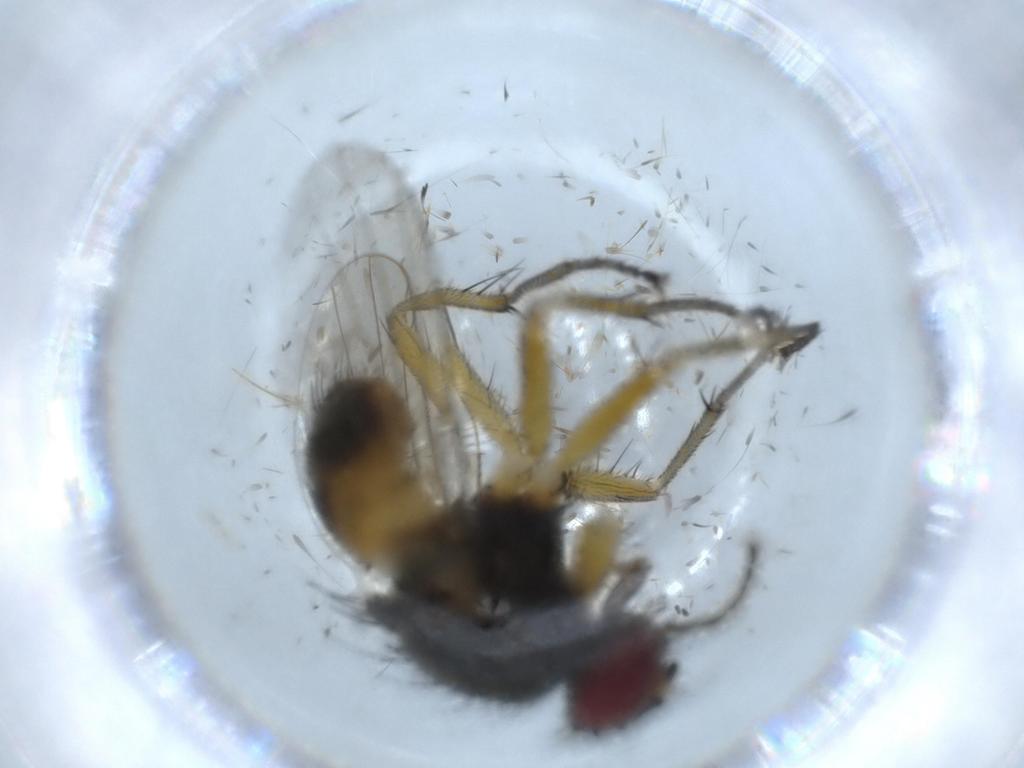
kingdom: Animalia
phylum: Arthropoda
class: Insecta
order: Diptera
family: Muscidae
